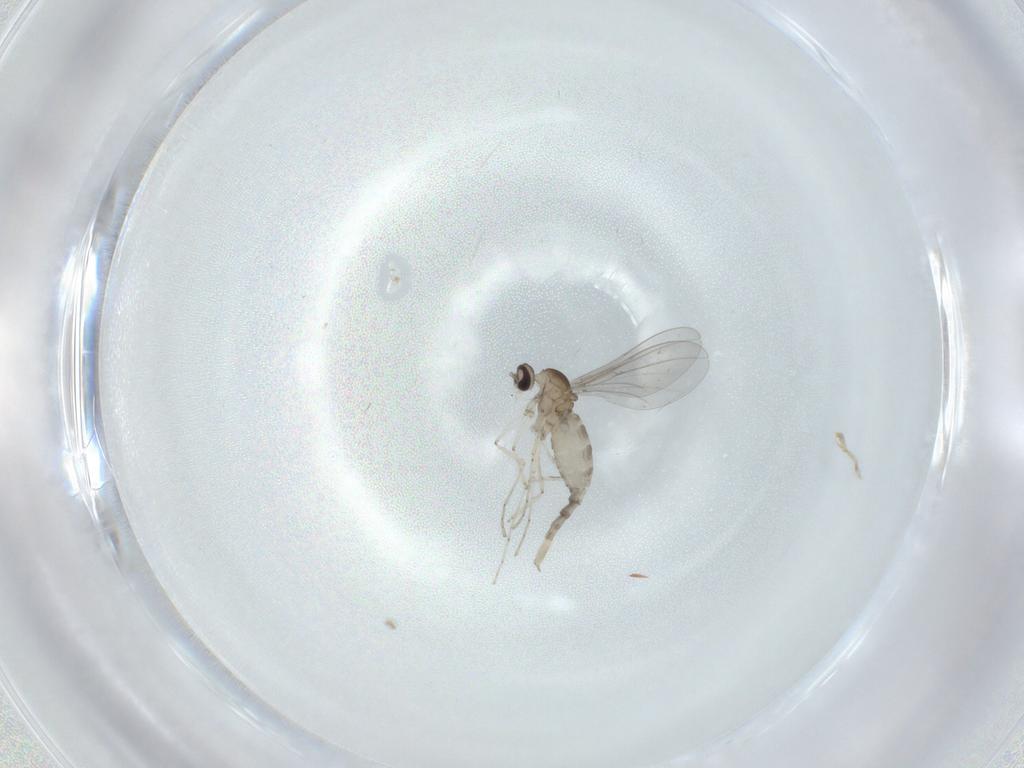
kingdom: Animalia
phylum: Arthropoda
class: Insecta
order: Diptera
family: Cecidomyiidae
